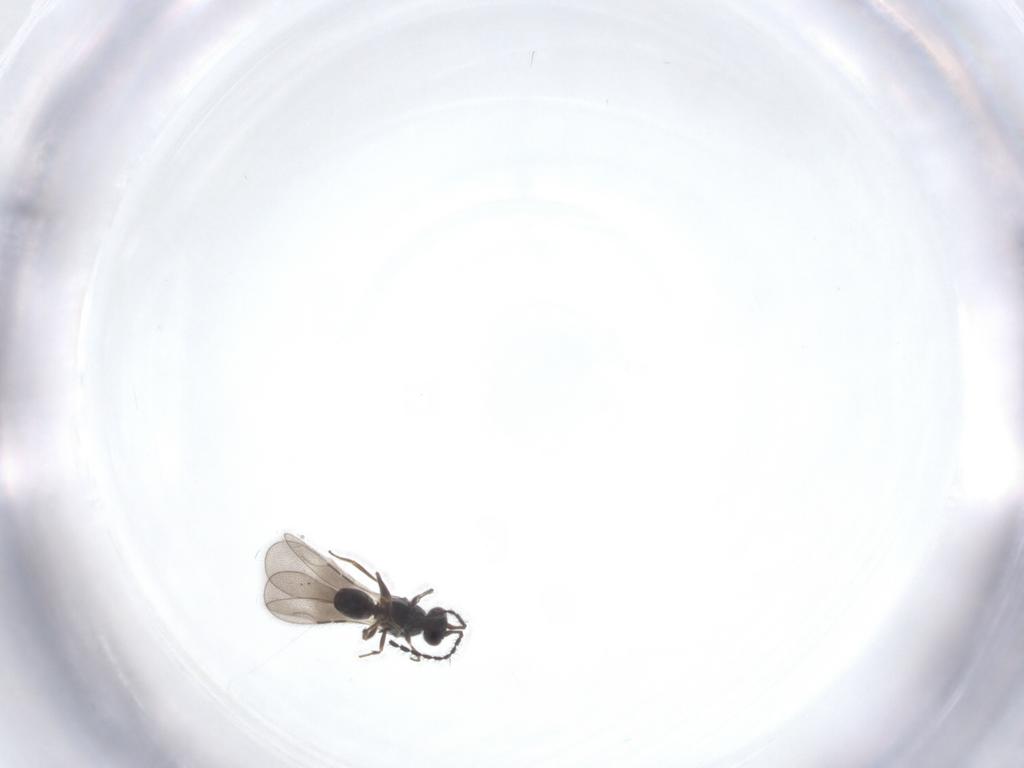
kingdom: Animalia
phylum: Arthropoda
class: Insecta
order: Hymenoptera
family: Ceraphronidae
